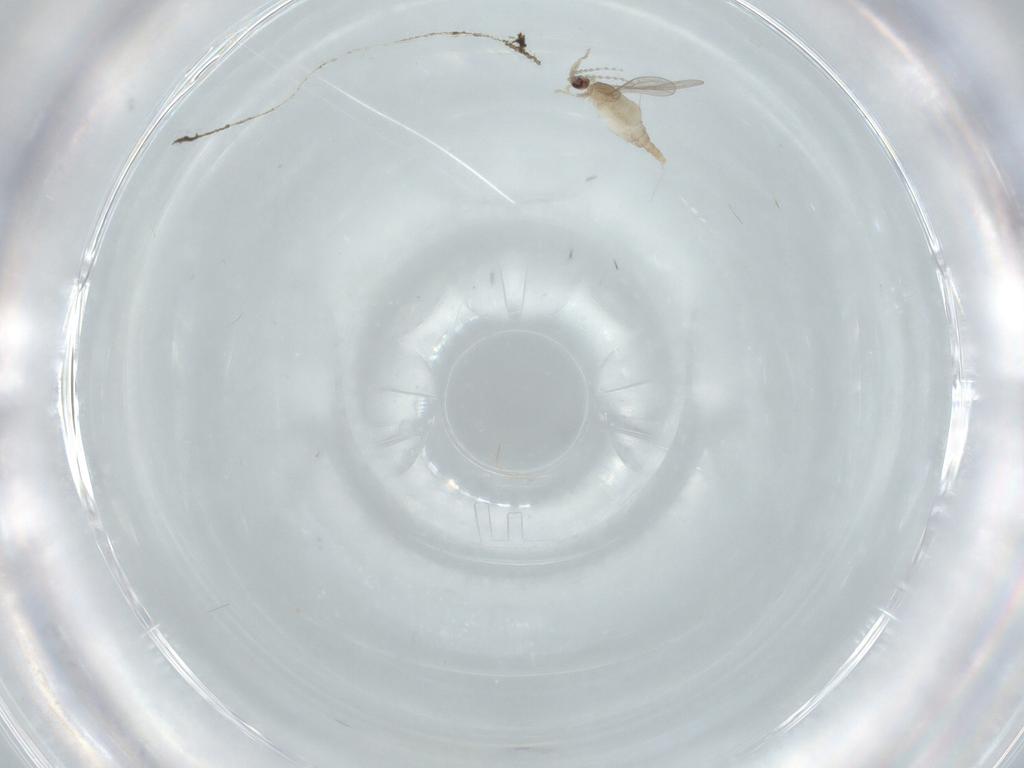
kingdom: Animalia
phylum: Arthropoda
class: Insecta
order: Diptera
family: Cecidomyiidae
